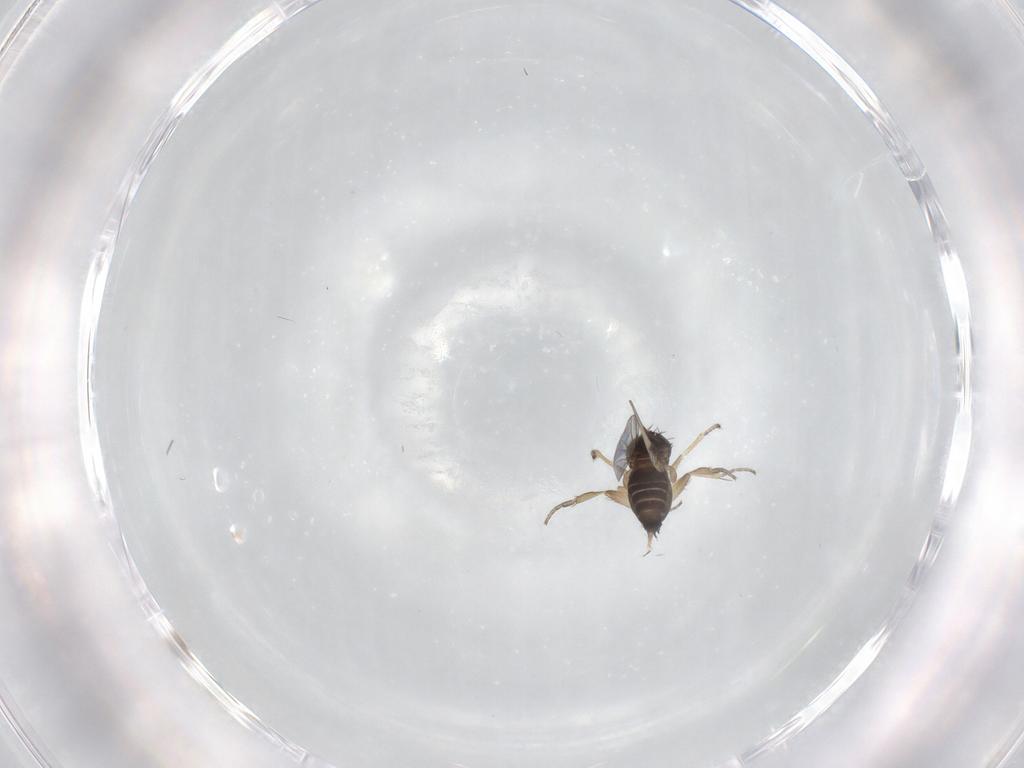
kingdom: Animalia
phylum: Arthropoda
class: Insecta
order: Diptera
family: Phoridae
